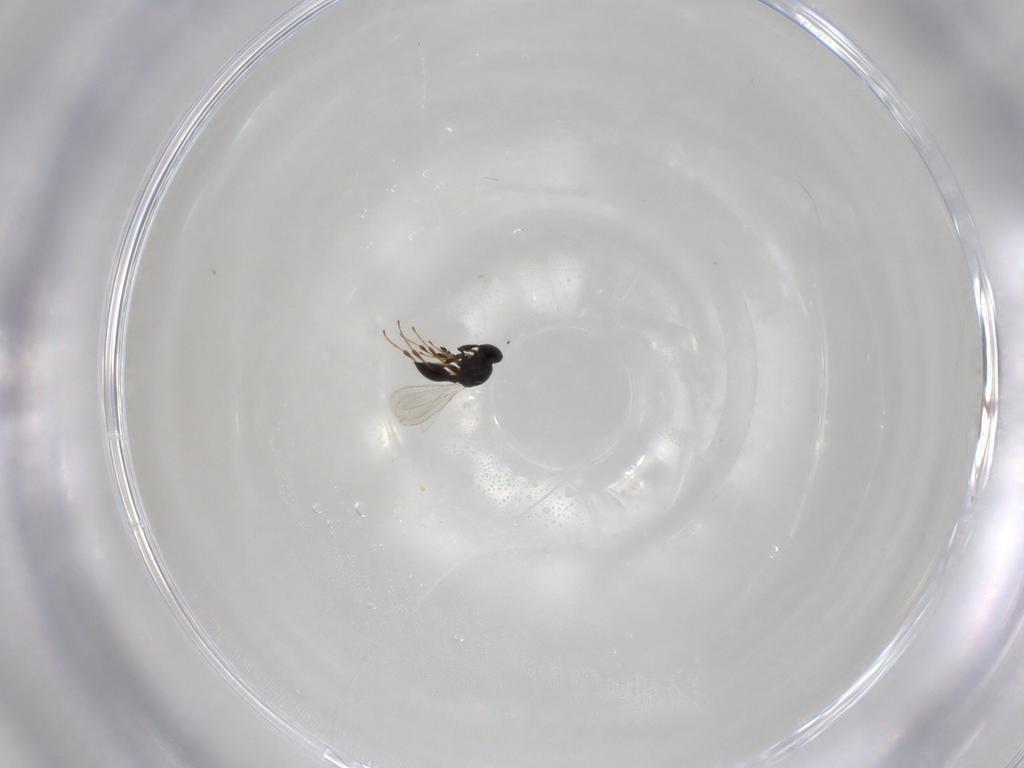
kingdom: Animalia
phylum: Arthropoda
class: Insecta
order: Hymenoptera
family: Platygastridae
